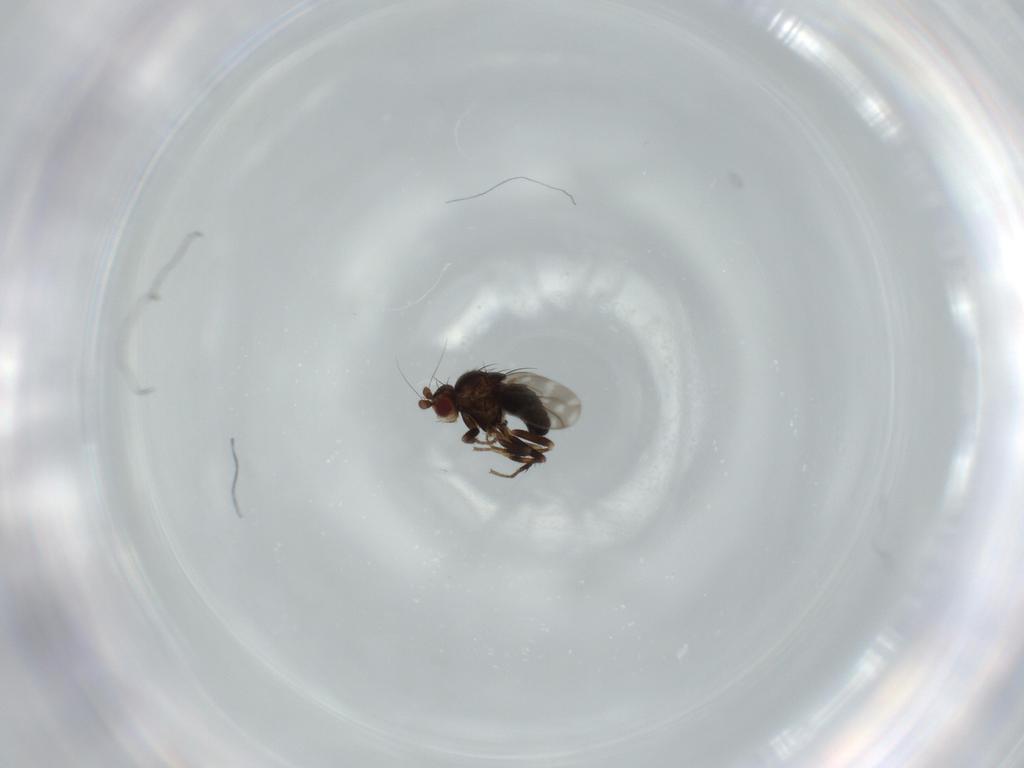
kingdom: Animalia
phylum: Arthropoda
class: Insecta
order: Diptera
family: Sphaeroceridae
